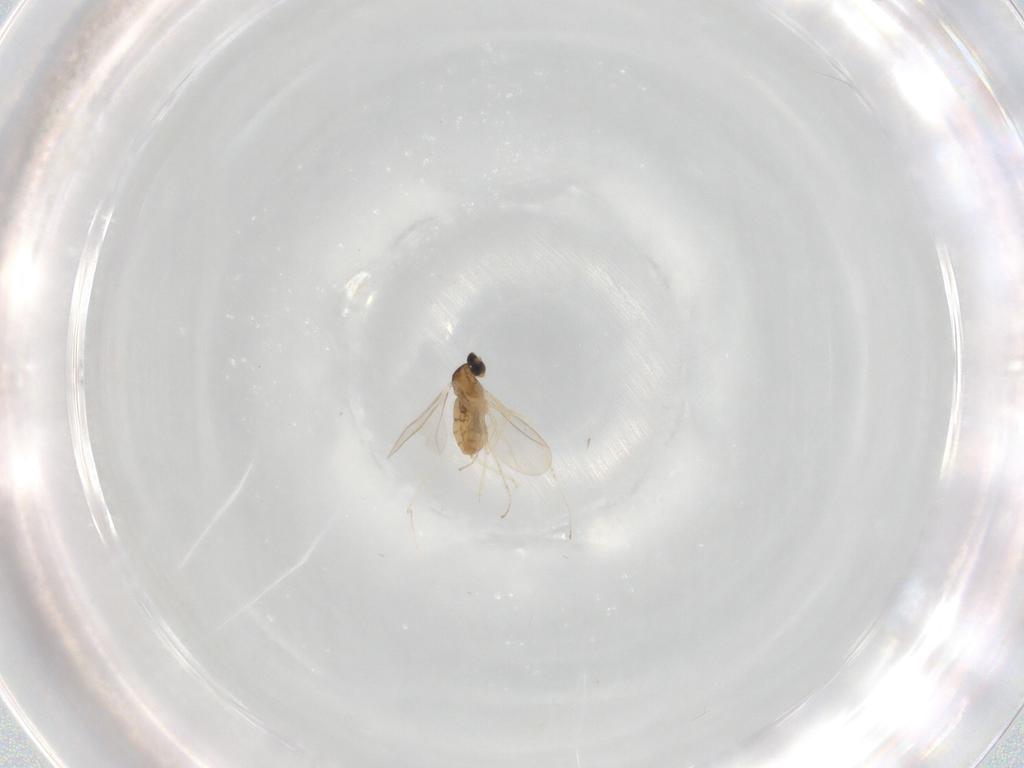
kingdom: Animalia
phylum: Arthropoda
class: Insecta
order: Diptera
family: Cecidomyiidae
